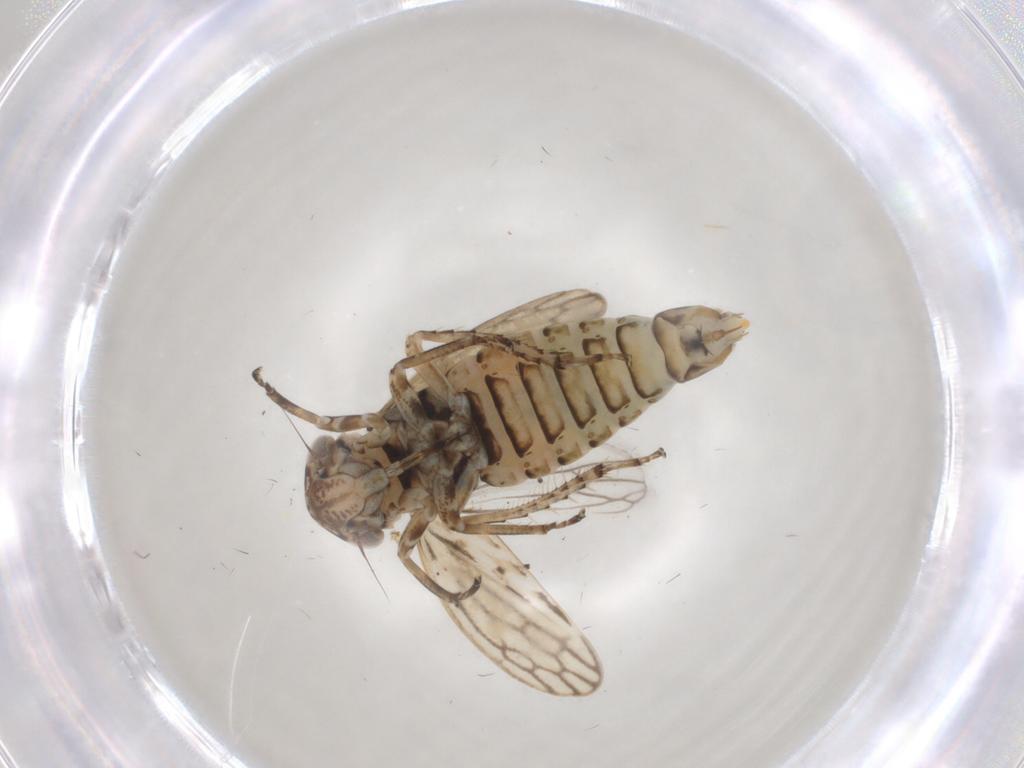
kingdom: Animalia
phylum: Arthropoda
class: Insecta
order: Hemiptera
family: Cicadellidae
